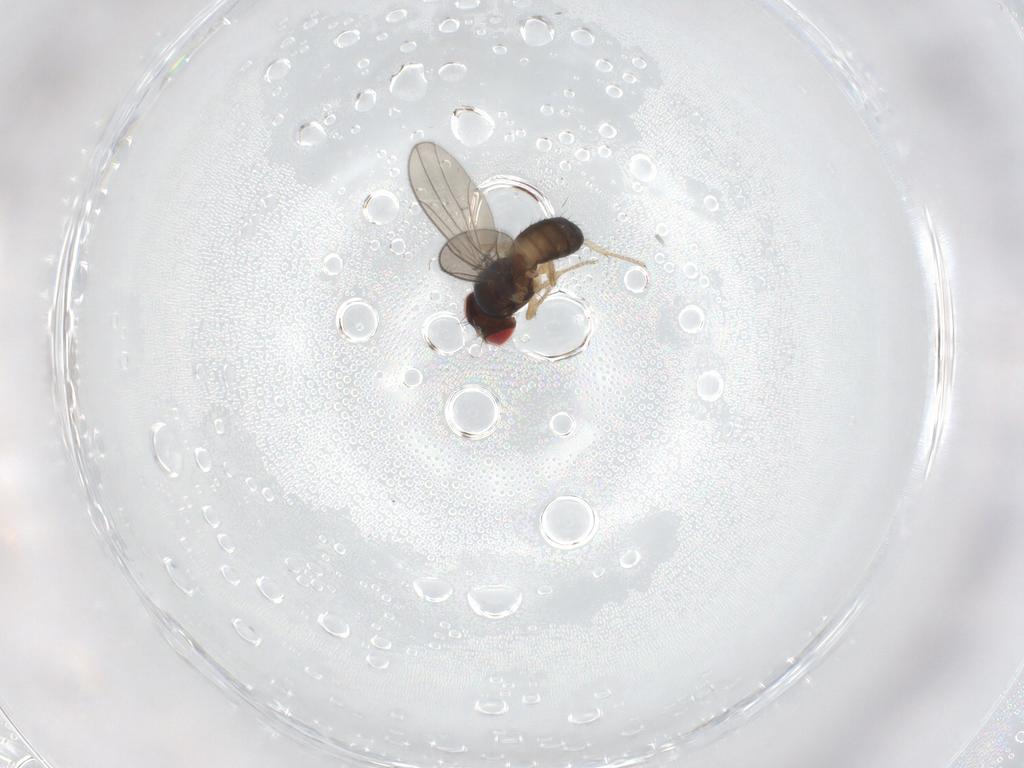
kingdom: Animalia
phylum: Arthropoda
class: Insecta
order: Diptera
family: Drosophilidae
